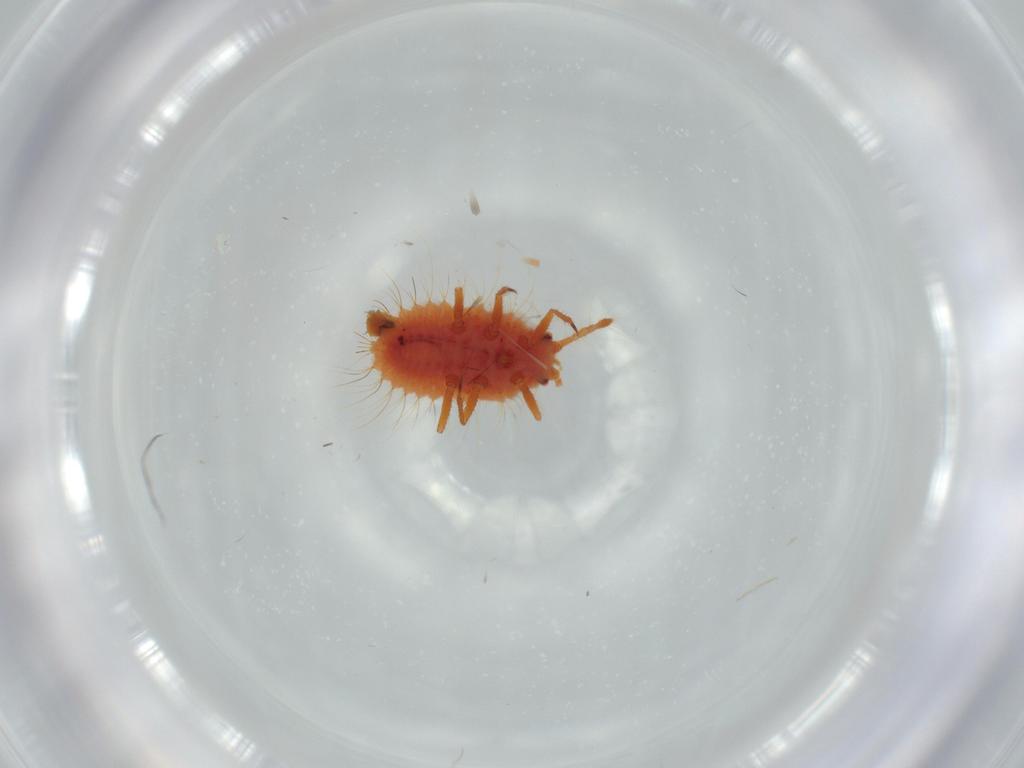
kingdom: Animalia
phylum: Arthropoda
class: Insecta
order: Hemiptera
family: Coccoidea_incertae_sedis
